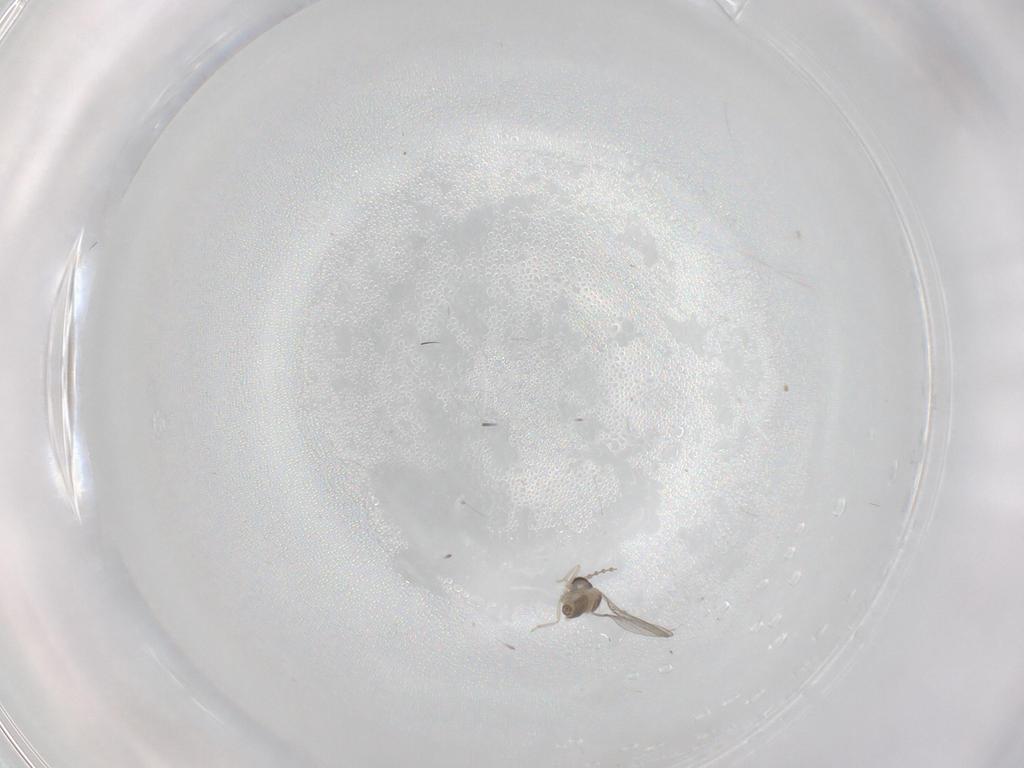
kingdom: Animalia
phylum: Arthropoda
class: Insecta
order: Diptera
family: Cecidomyiidae
